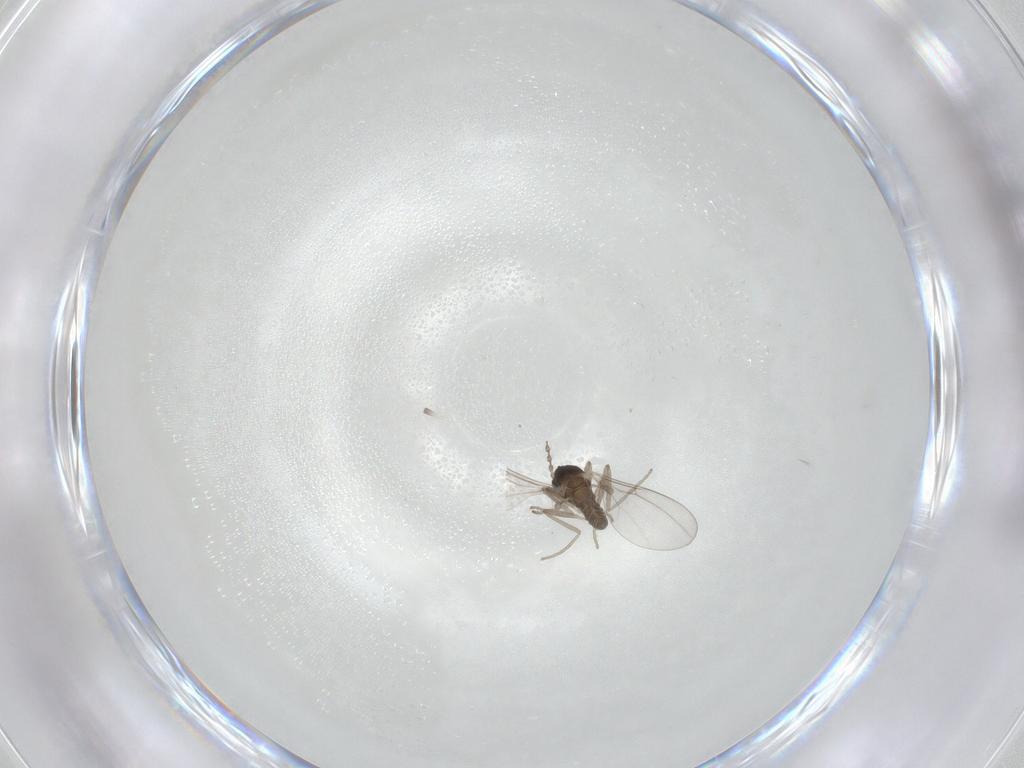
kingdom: Animalia
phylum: Arthropoda
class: Insecta
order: Diptera
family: Cecidomyiidae
